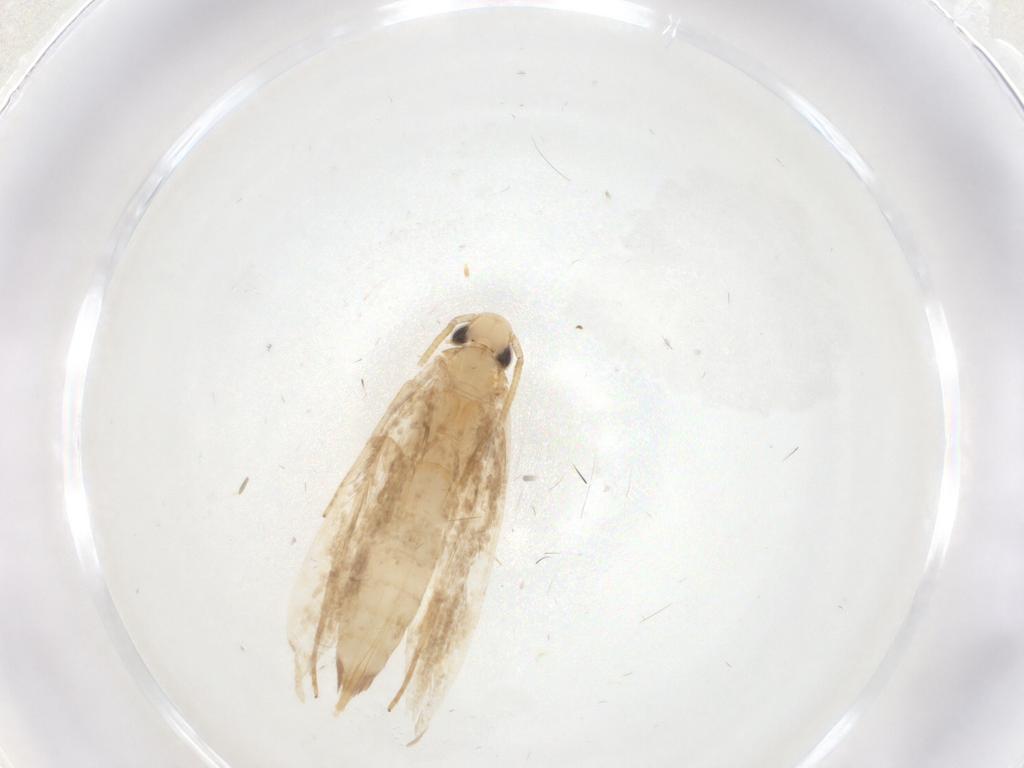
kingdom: Animalia
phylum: Arthropoda
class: Insecta
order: Lepidoptera
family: Tineidae
